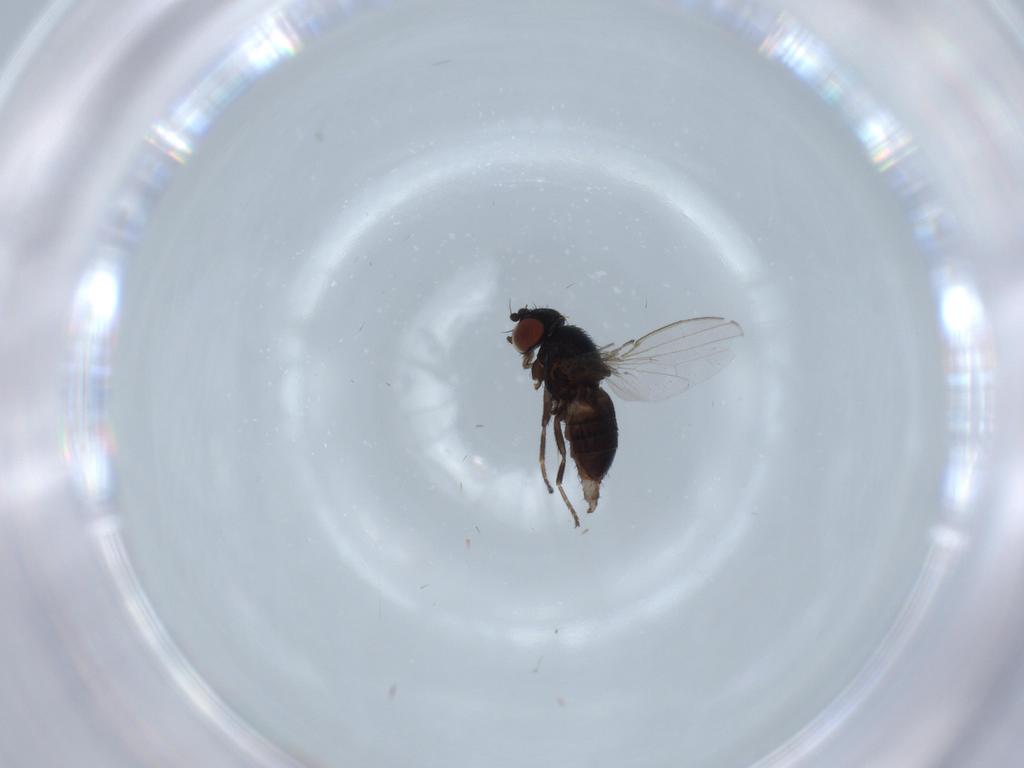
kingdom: Animalia
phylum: Arthropoda
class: Insecta
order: Diptera
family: Milichiidae
